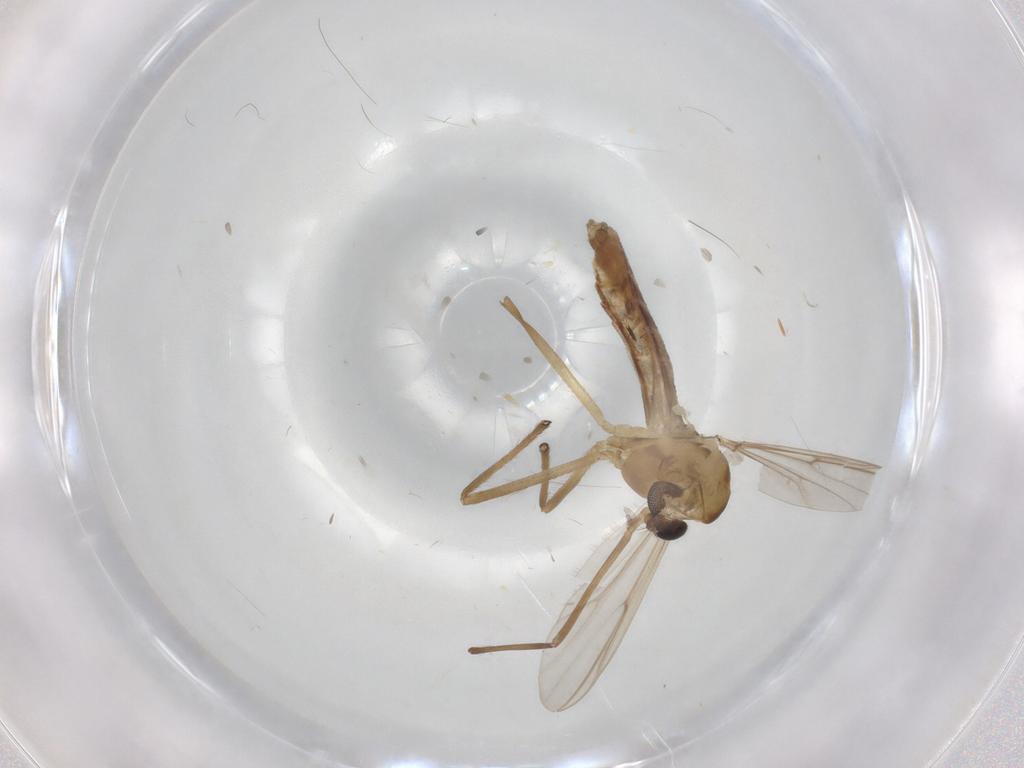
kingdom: Animalia
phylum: Arthropoda
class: Insecta
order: Diptera
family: Chironomidae
